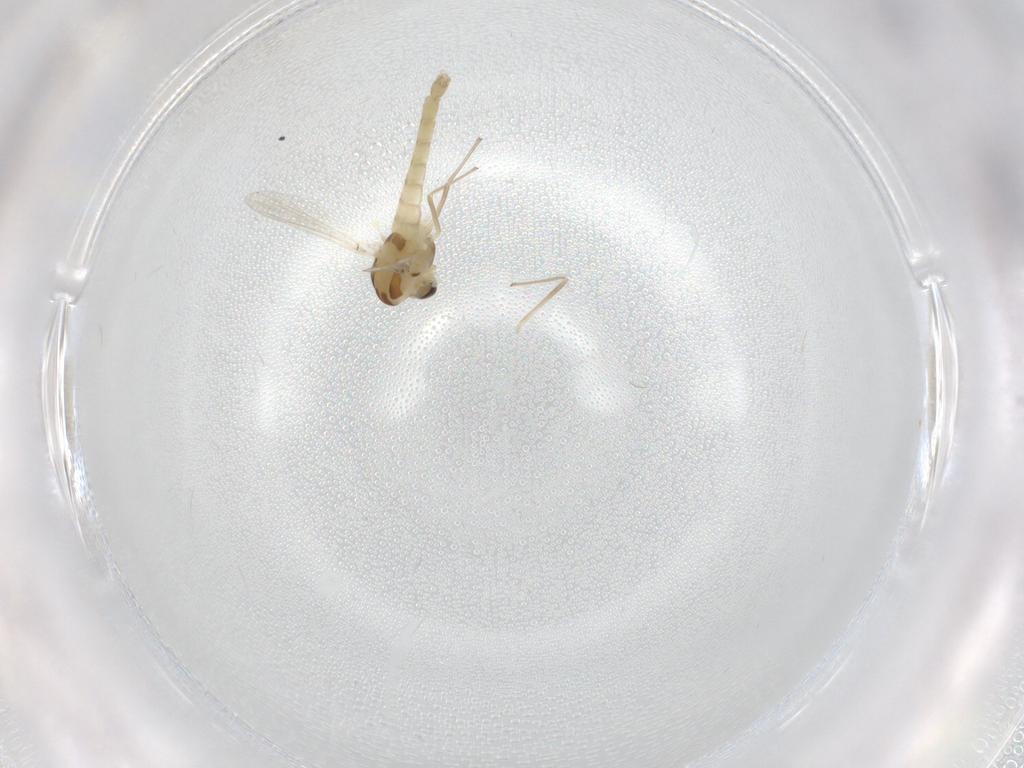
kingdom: Animalia
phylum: Arthropoda
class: Insecta
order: Diptera
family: Chironomidae
